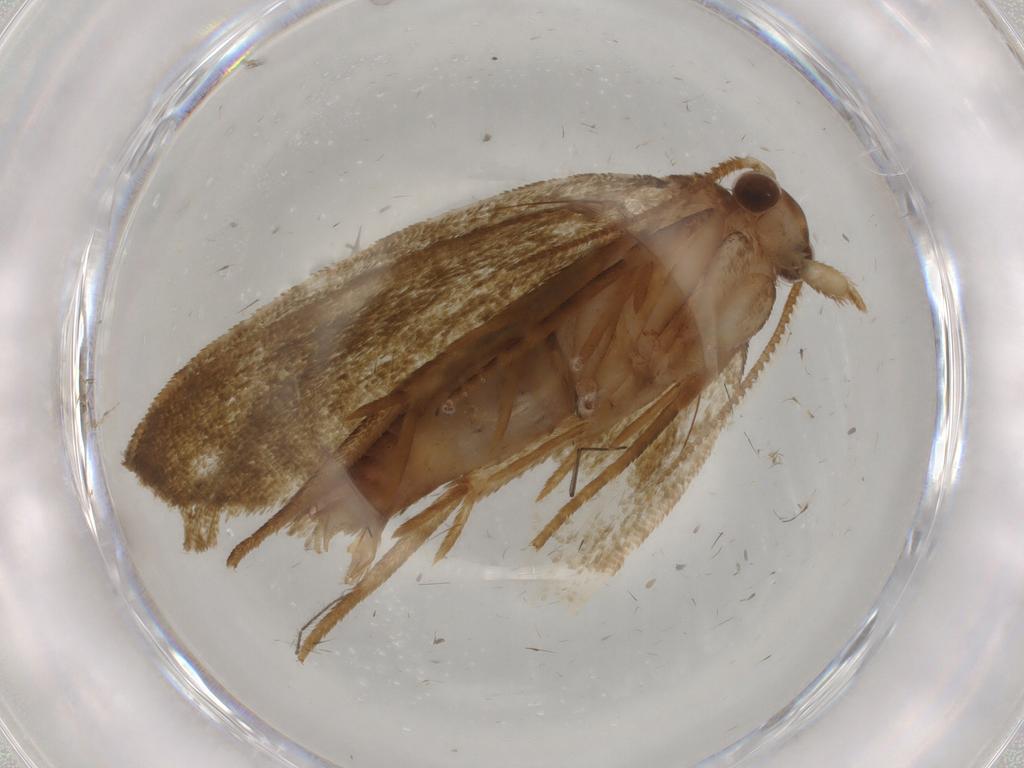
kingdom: Animalia
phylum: Arthropoda
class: Insecta
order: Lepidoptera
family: Geometridae
